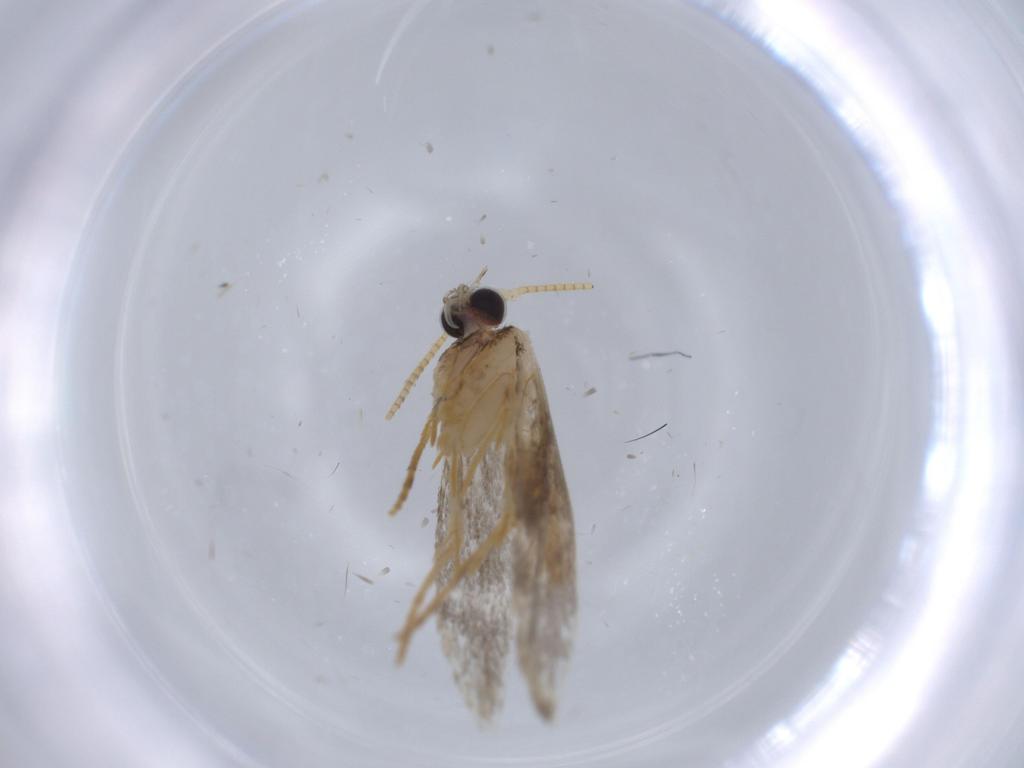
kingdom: Animalia
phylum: Arthropoda
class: Insecta
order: Lepidoptera
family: Tineidae
